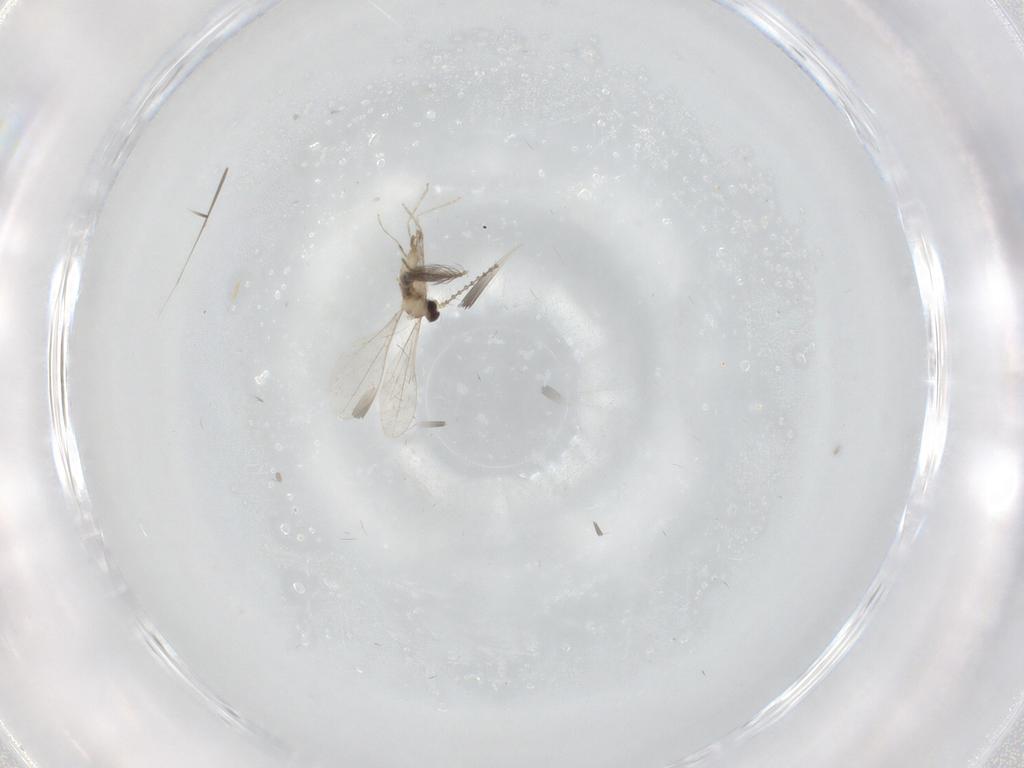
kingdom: Animalia
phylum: Arthropoda
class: Insecta
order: Diptera
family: Cecidomyiidae
